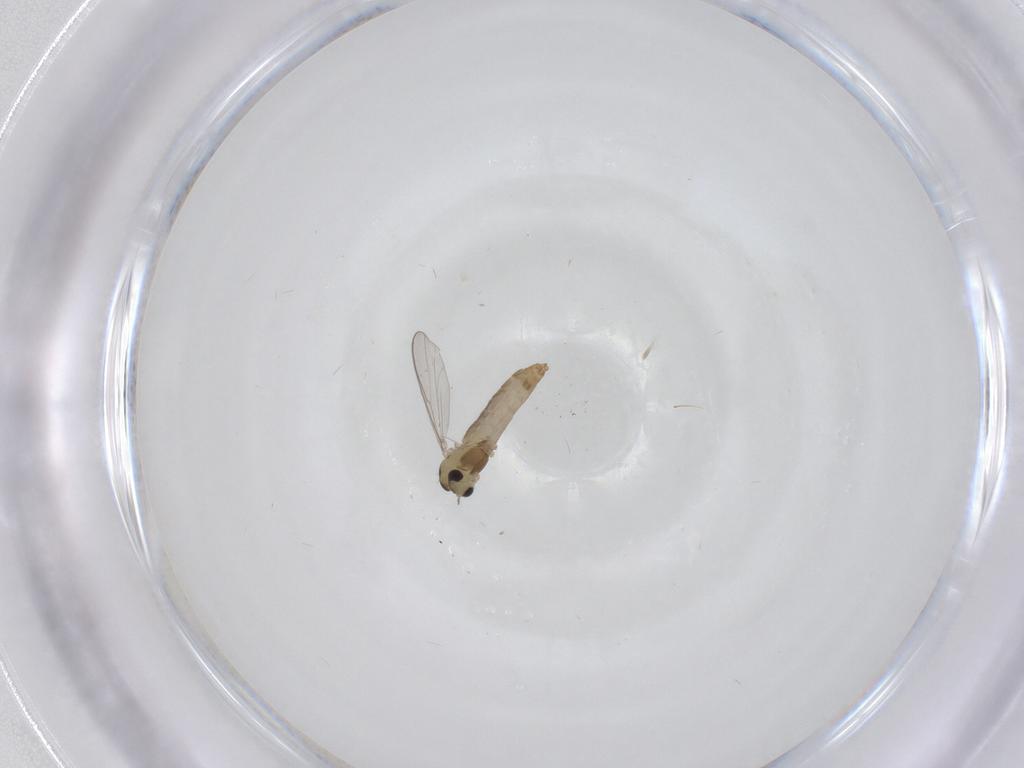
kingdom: Animalia
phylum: Arthropoda
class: Insecta
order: Diptera
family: Chironomidae
